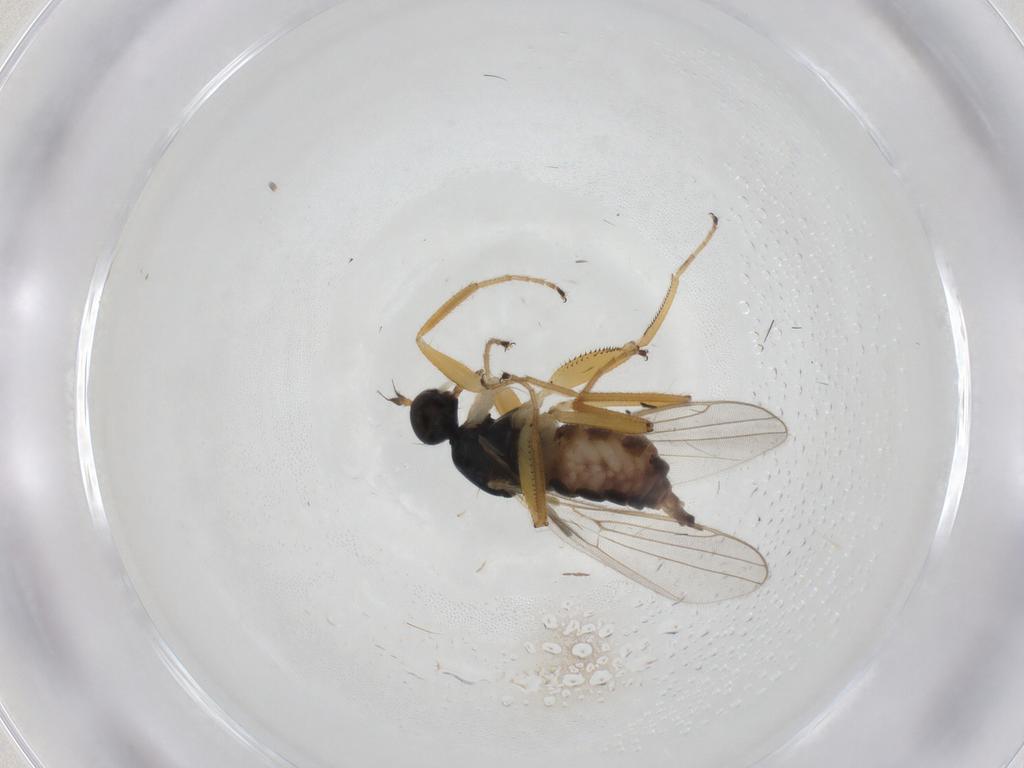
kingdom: Animalia
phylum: Arthropoda
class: Insecta
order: Diptera
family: Hybotidae
